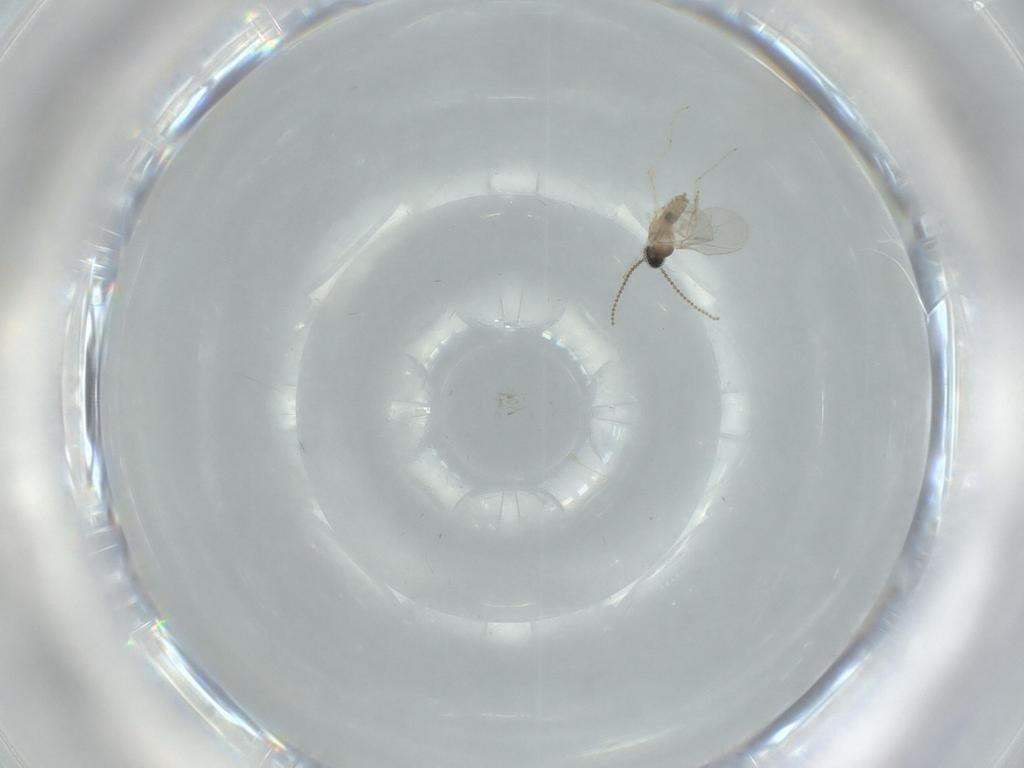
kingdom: Animalia
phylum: Arthropoda
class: Insecta
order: Diptera
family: Cecidomyiidae
